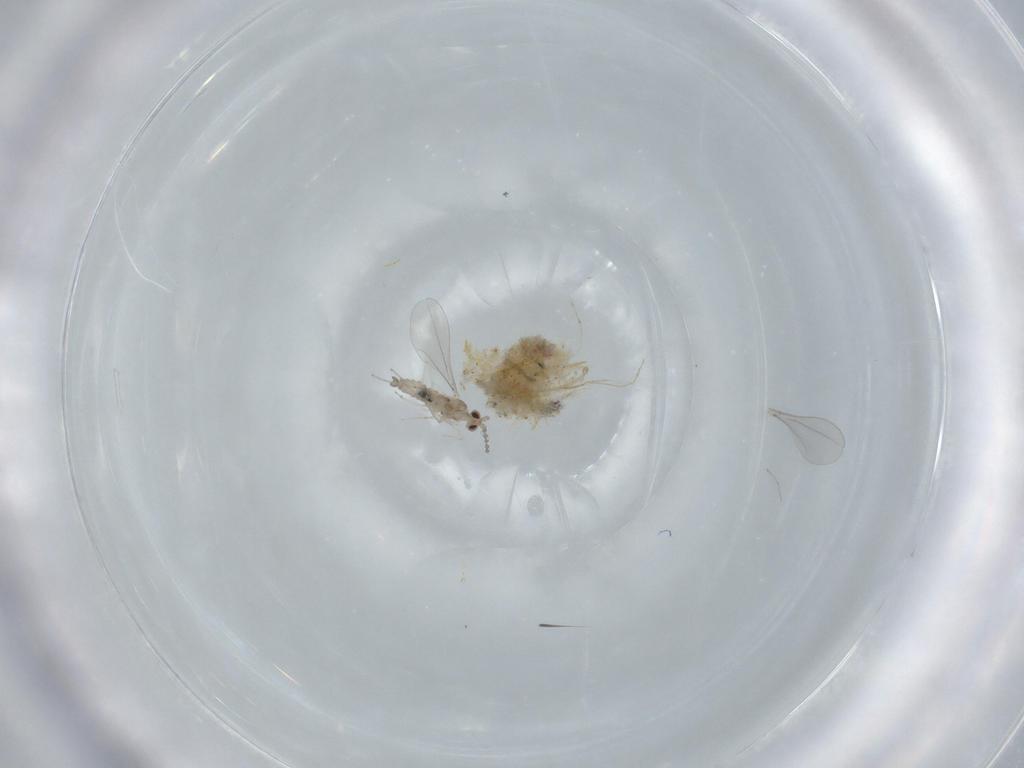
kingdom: Animalia
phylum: Arthropoda
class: Insecta
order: Diptera
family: Cecidomyiidae
